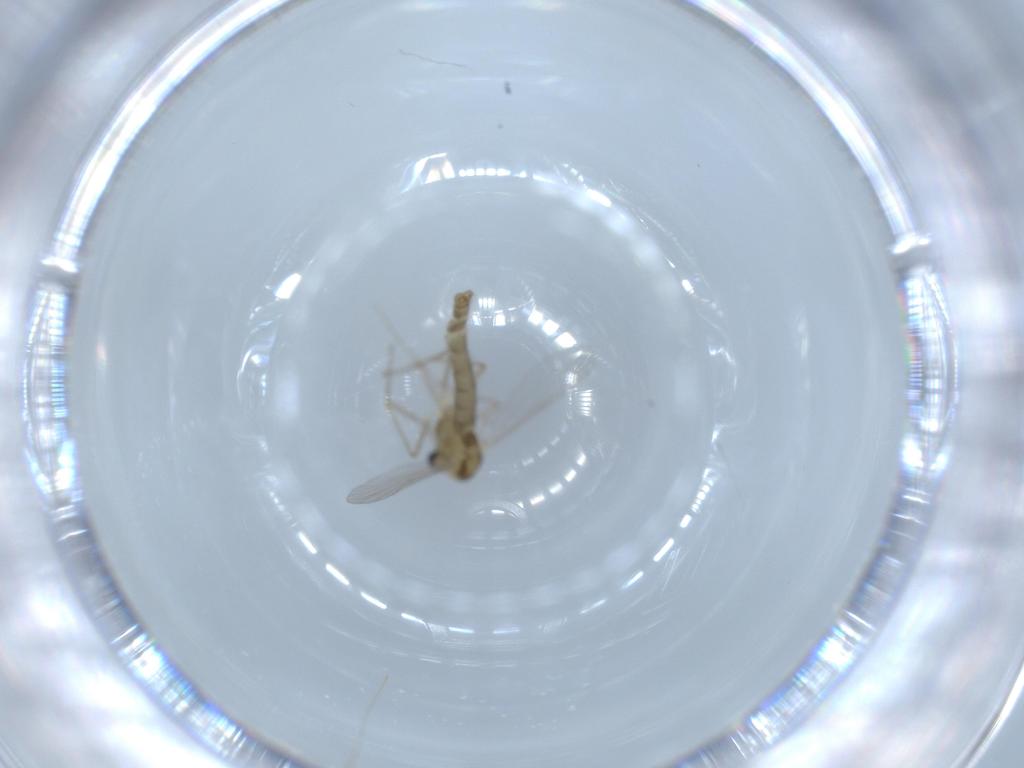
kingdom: Animalia
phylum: Arthropoda
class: Insecta
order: Diptera
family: Chironomidae
